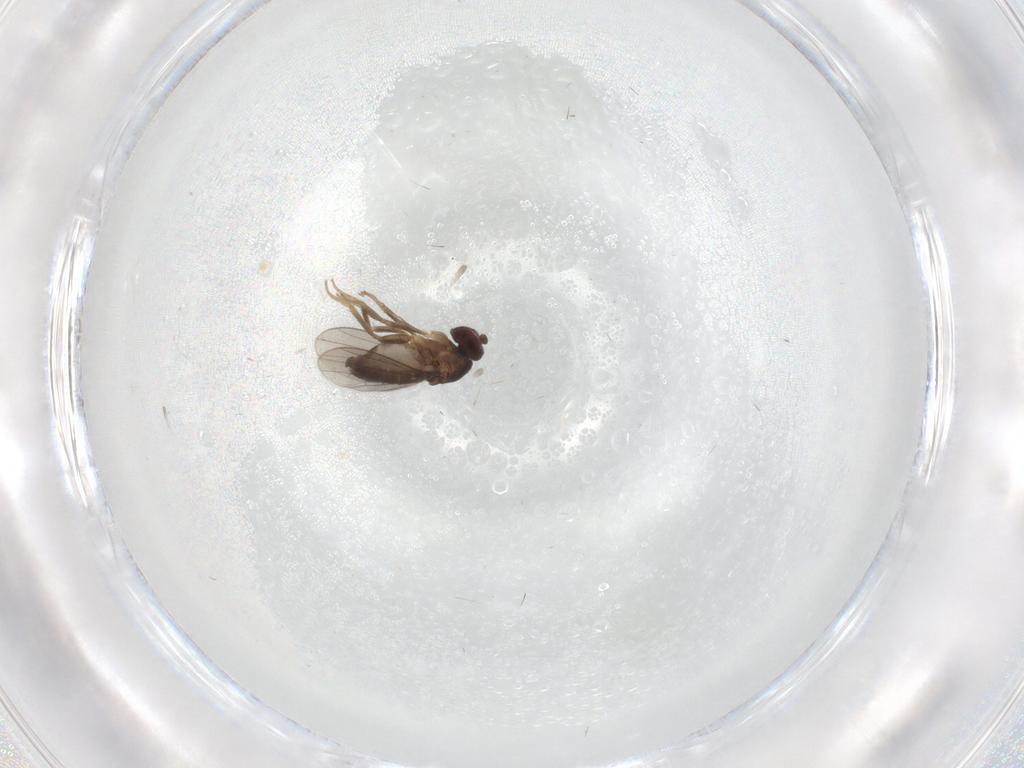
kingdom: Animalia
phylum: Arthropoda
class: Insecta
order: Diptera
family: Dolichopodidae
